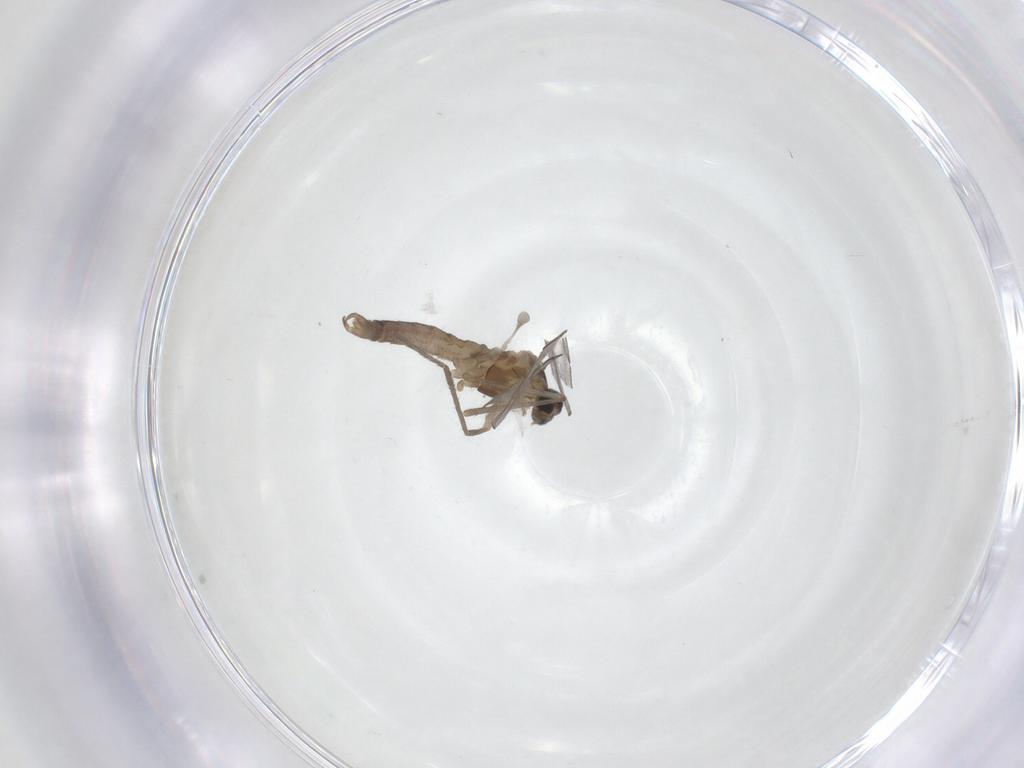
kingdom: Animalia
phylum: Arthropoda
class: Insecta
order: Diptera
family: Cecidomyiidae
